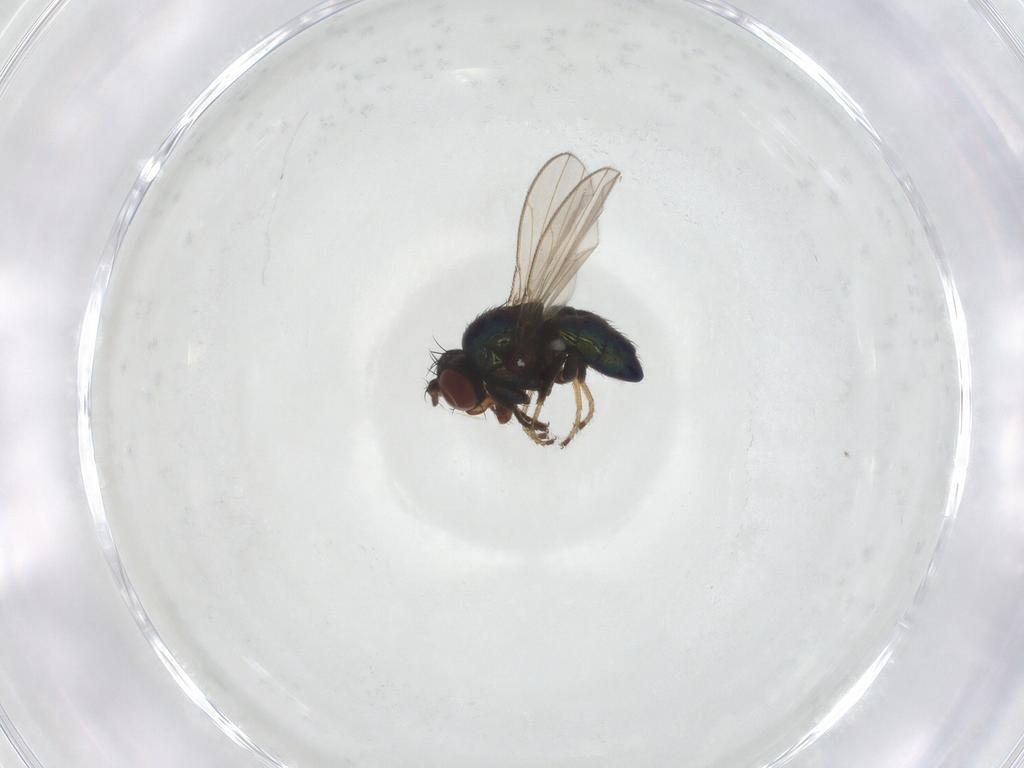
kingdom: Animalia
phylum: Arthropoda
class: Insecta
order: Diptera
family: Ephydridae
